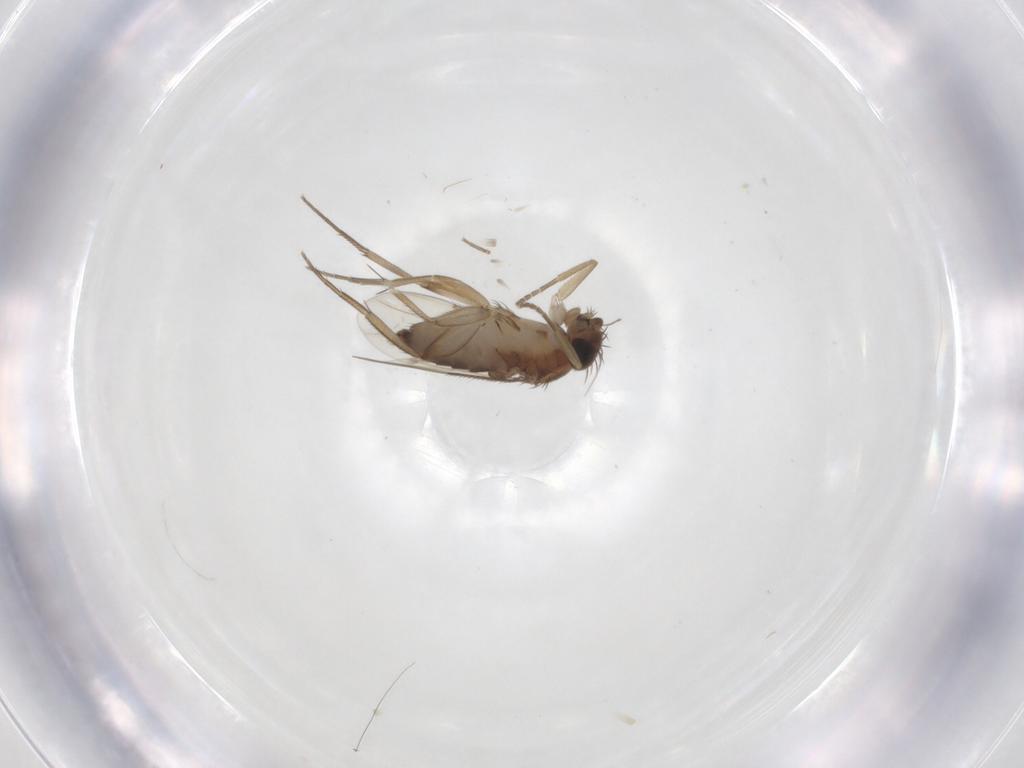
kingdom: Animalia
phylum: Arthropoda
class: Insecta
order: Diptera
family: Phoridae
